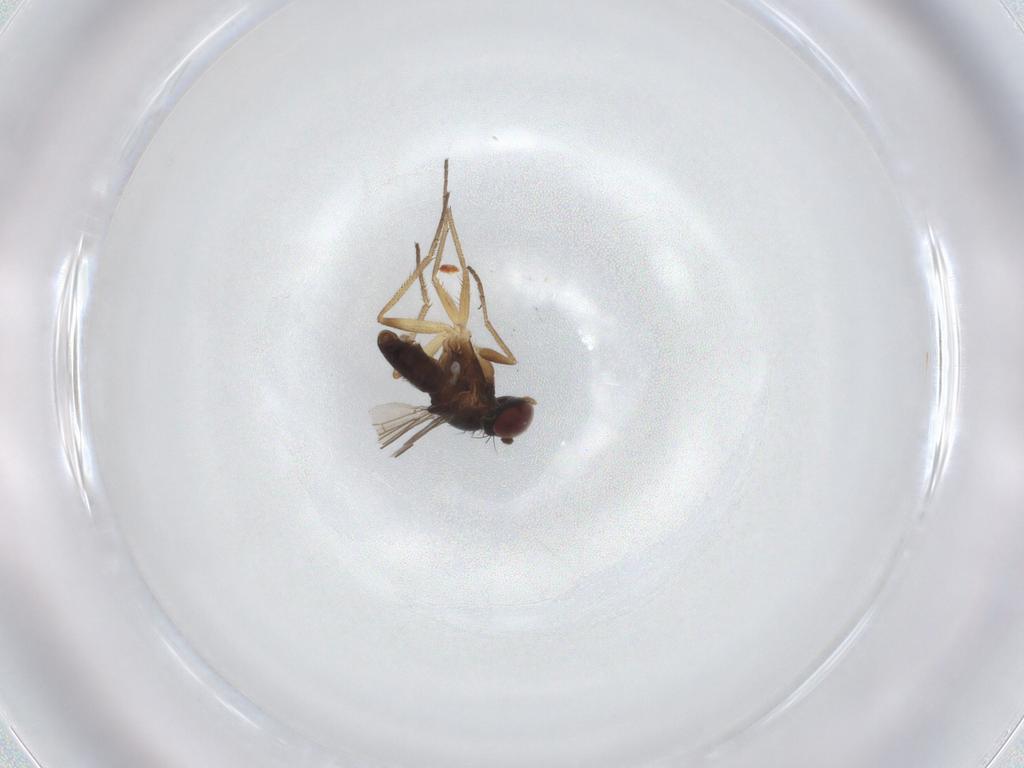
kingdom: Animalia
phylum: Arthropoda
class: Insecta
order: Diptera
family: Dolichopodidae
